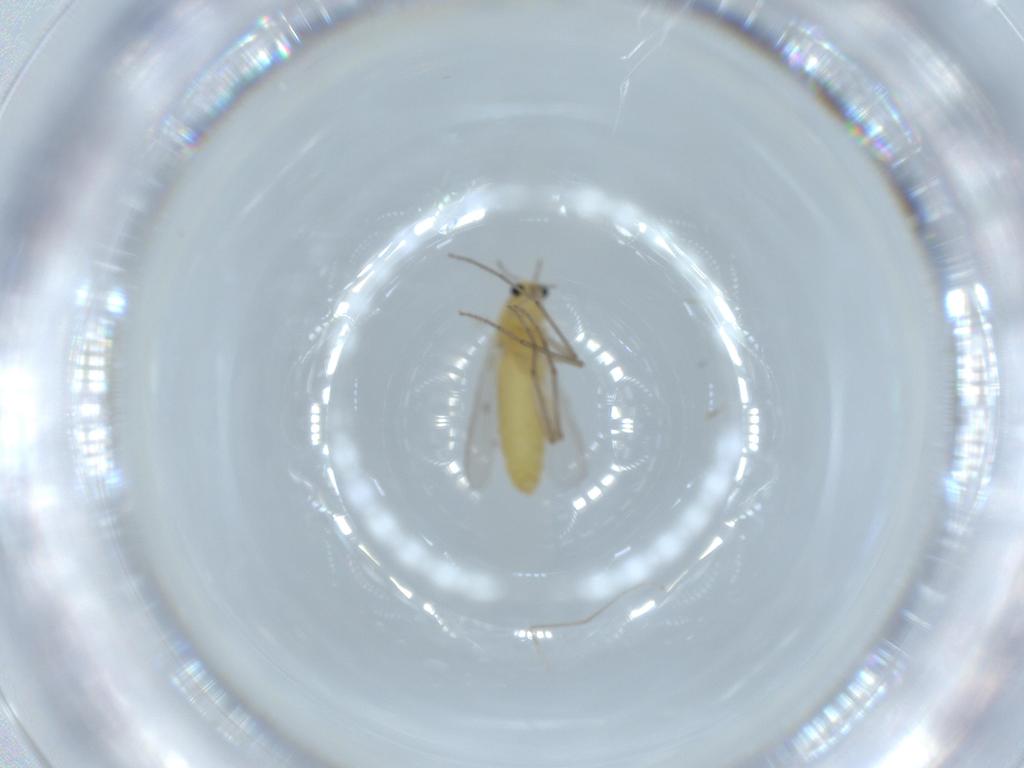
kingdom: Animalia
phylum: Arthropoda
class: Insecta
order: Diptera
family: Chironomidae
